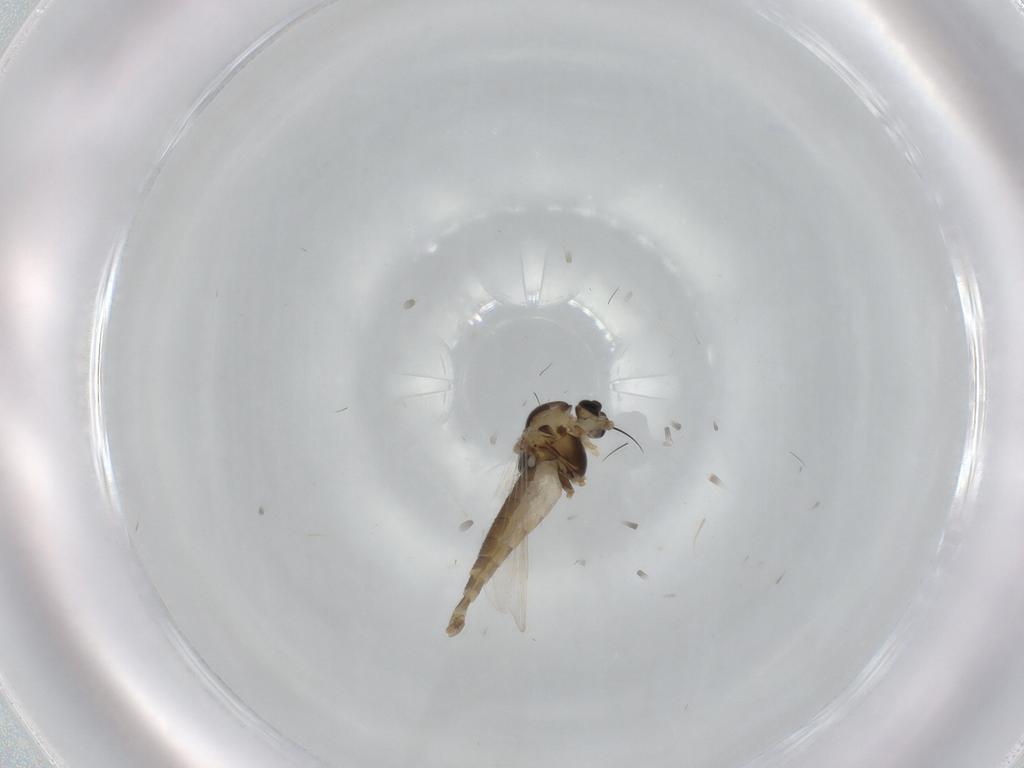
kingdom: Animalia
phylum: Arthropoda
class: Insecta
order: Diptera
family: Chironomidae
